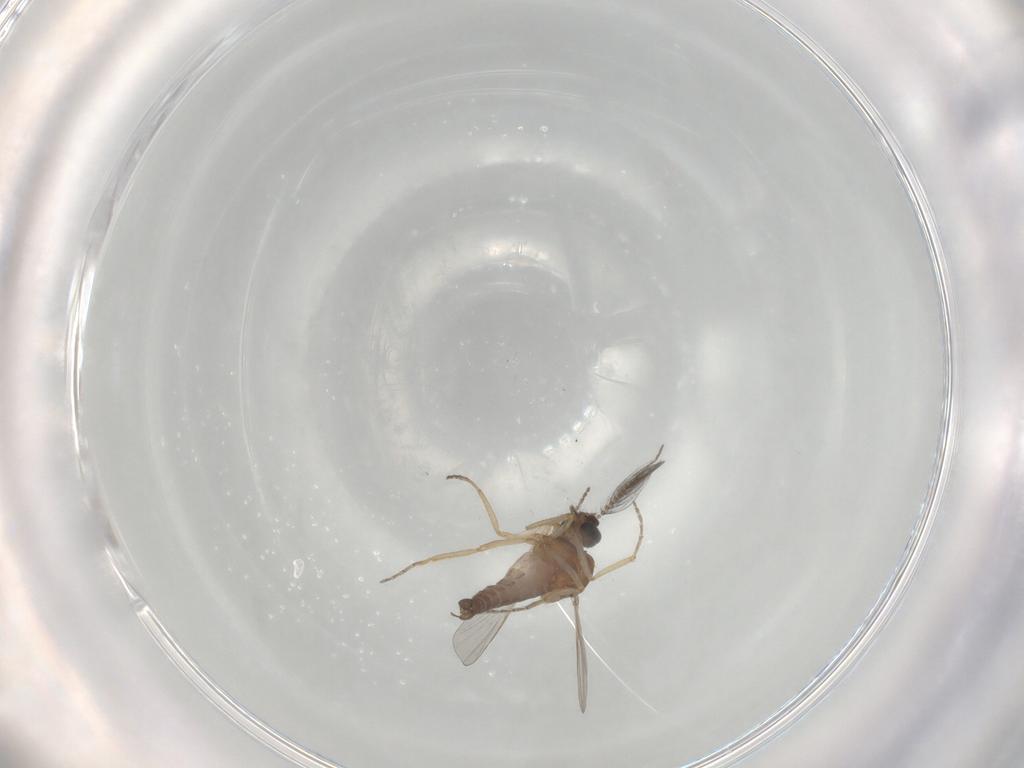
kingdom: Animalia
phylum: Arthropoda
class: Insecta
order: Diptera
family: Ceratopogonidae
